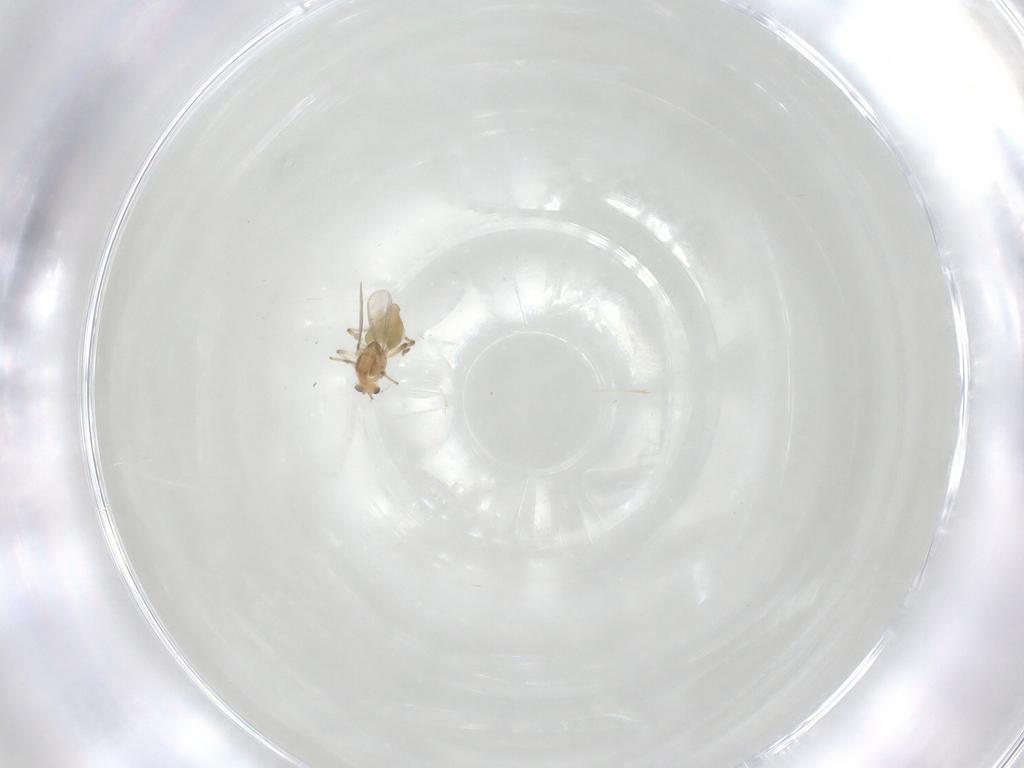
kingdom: Animalia
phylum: Arthropoda
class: Insecta
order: Diptera
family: Chironomidae
